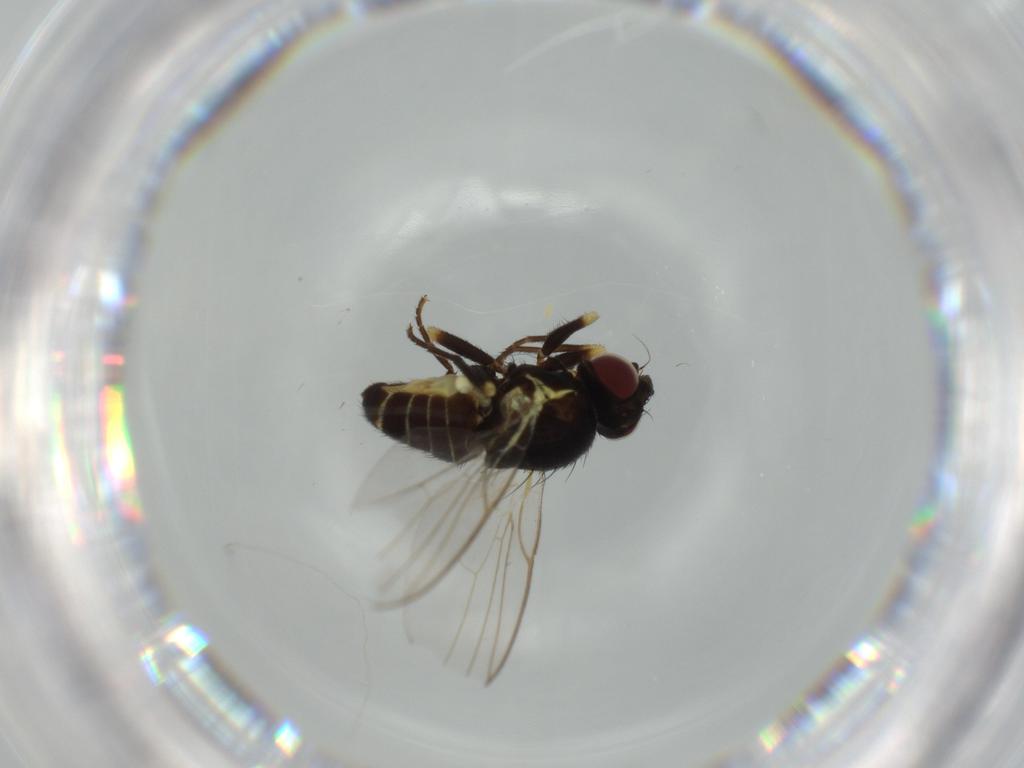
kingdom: Animalia
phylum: Arthropoda
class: Insecta
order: Diptera
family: Agromyzidae
